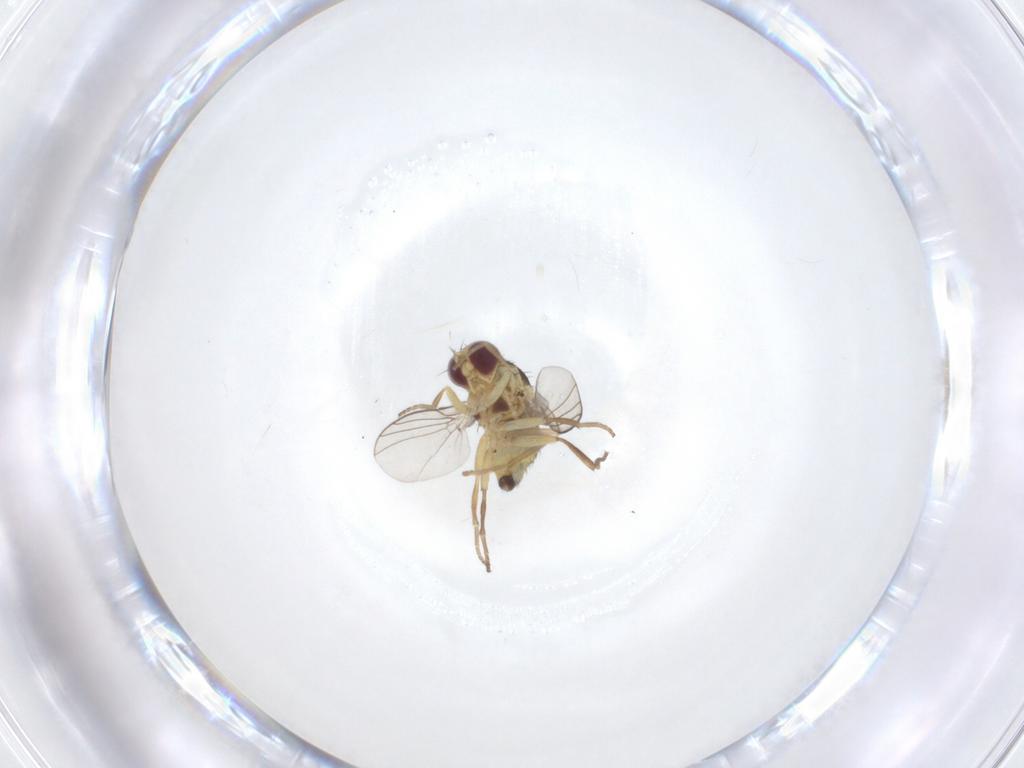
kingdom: Animalia
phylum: Arthropoda
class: Insecta
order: Diptera
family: Agromyzidae
